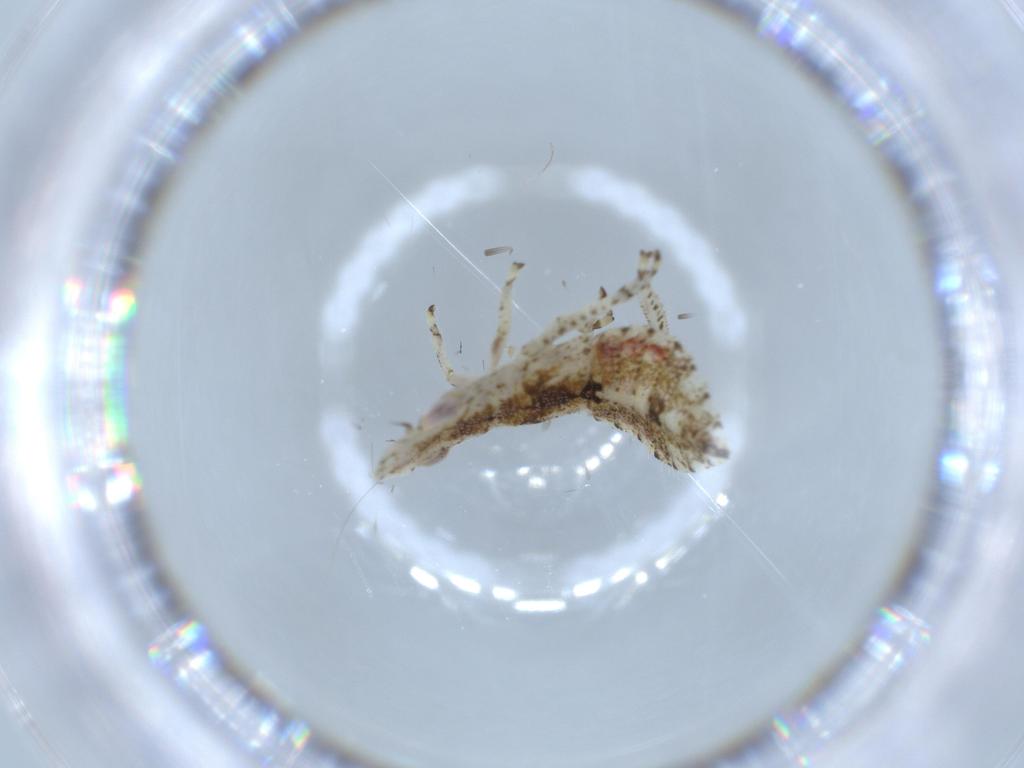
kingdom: Animalia
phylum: Arthropoda
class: Insecta
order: Hemiptera
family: Cicadellidae
